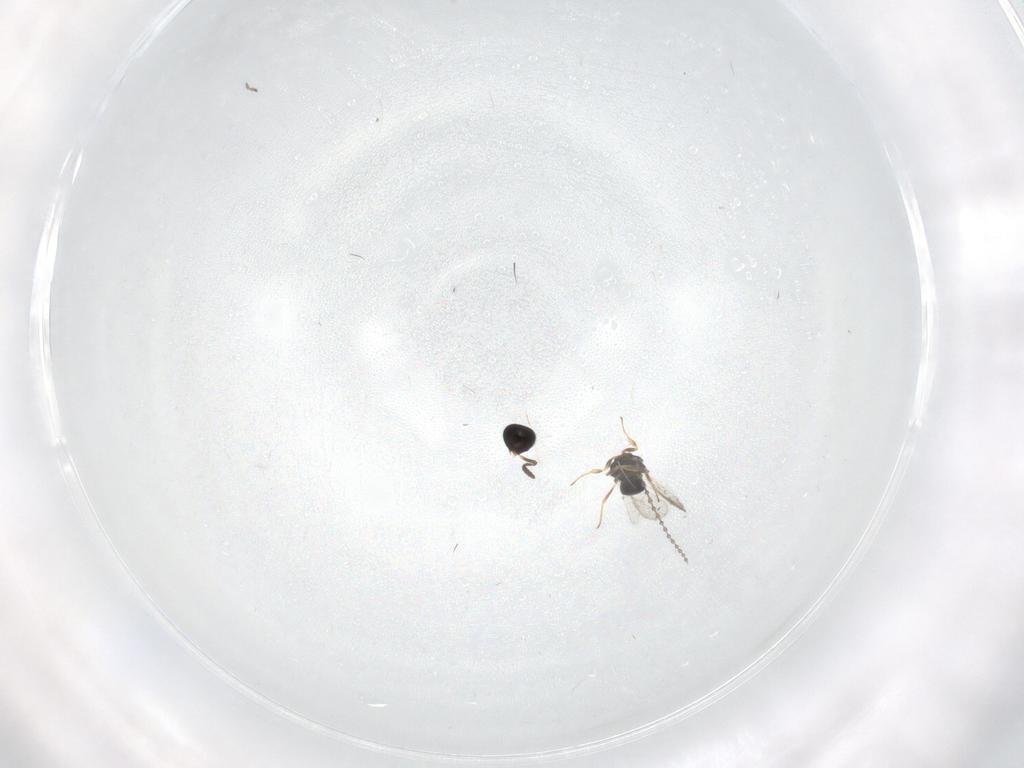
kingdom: Animalia
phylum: Arthropoda
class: Insecta
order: Hymenoptera
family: Scelionidae
